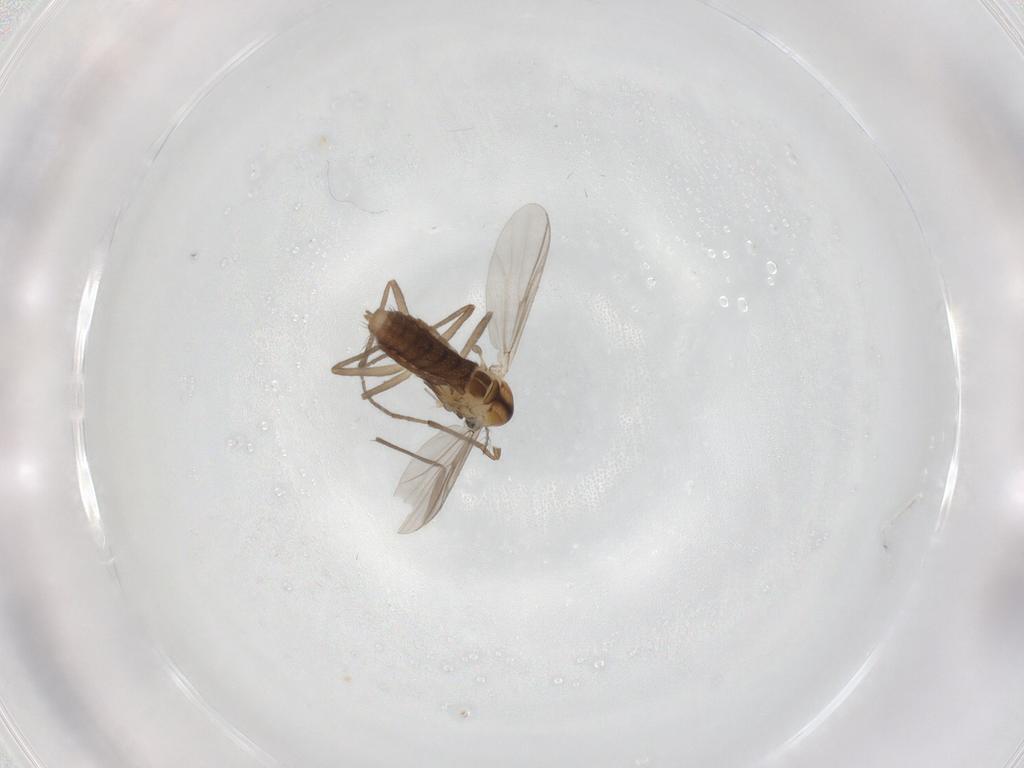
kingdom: Animalia
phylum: Arthropoda
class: Insecta
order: Diptera
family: Chironomidae
